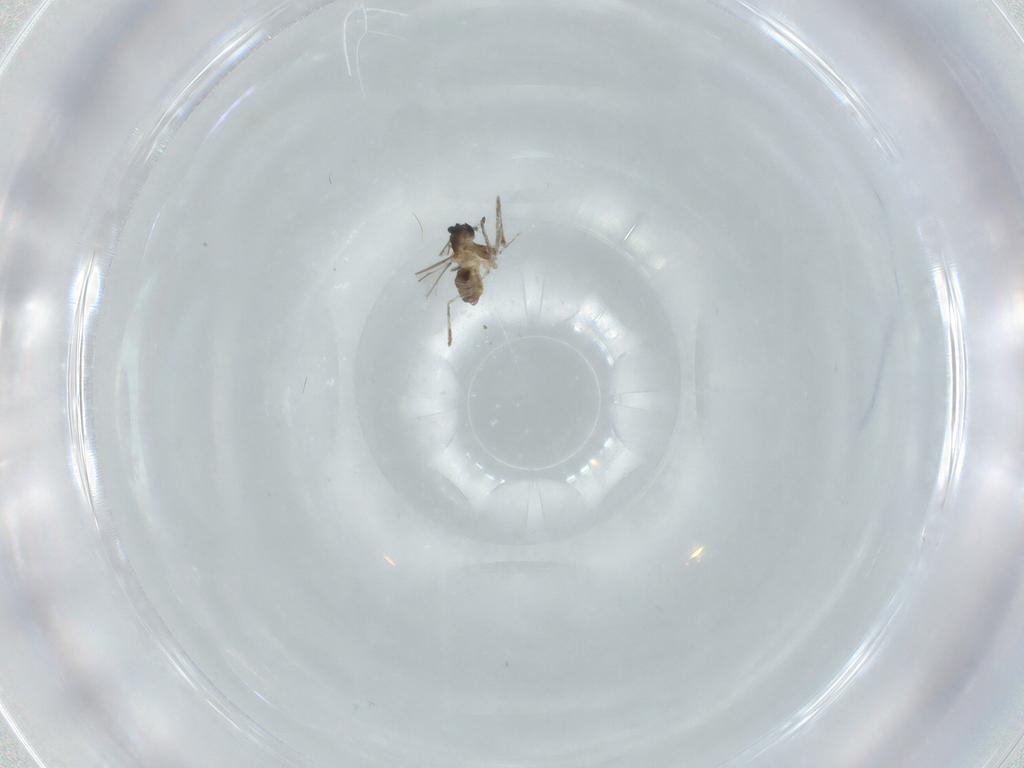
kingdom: Animalia
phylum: Arthropoda
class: Insecta
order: Diptera
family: Cecidomyiidae
